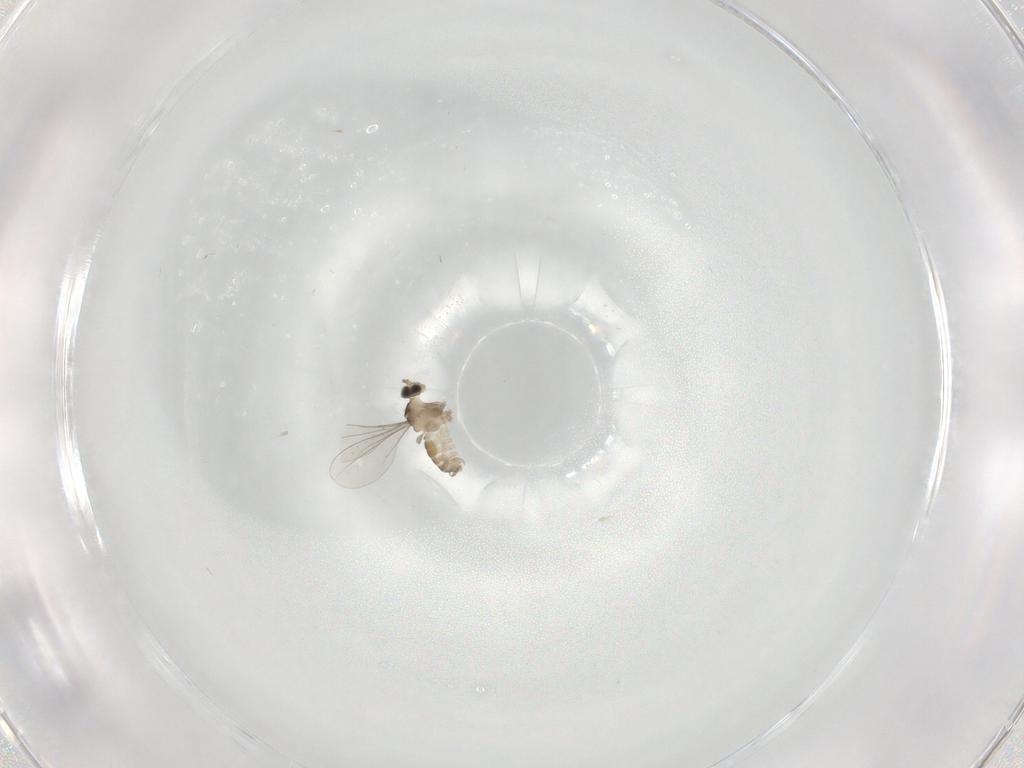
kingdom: Animalia
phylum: Arthropoda
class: Insecta
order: Diptera
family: Cecidomyiidae
